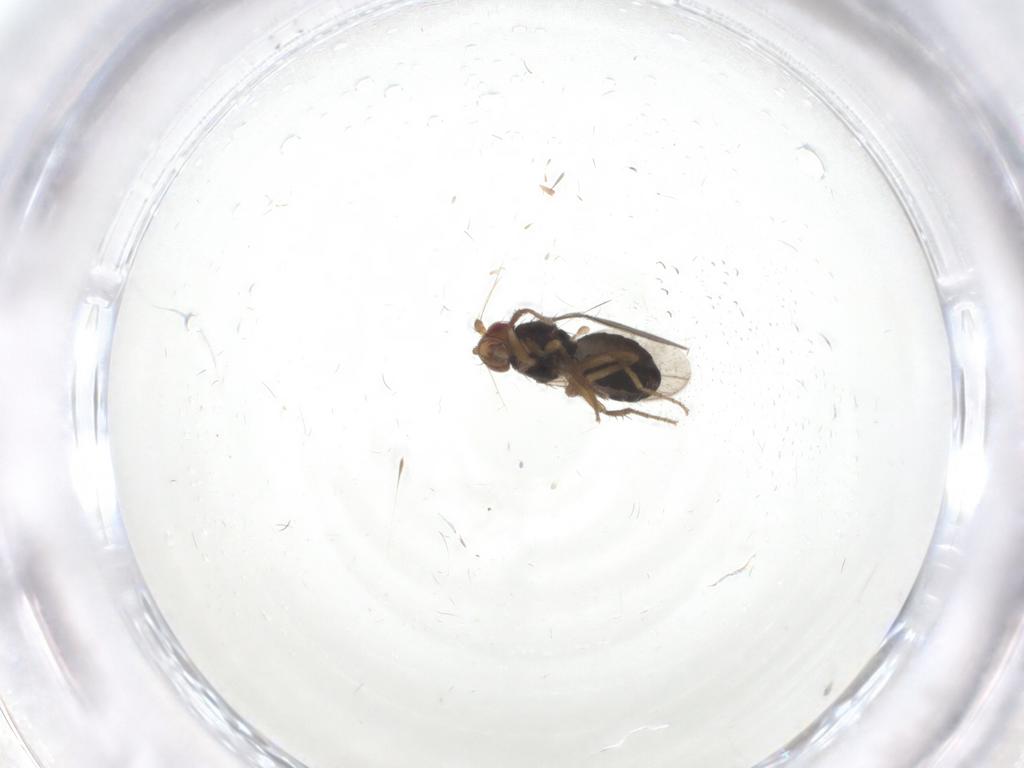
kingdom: Animalia
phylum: Arthropoda
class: Insecta
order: Diptera
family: Sphaeroceridae
